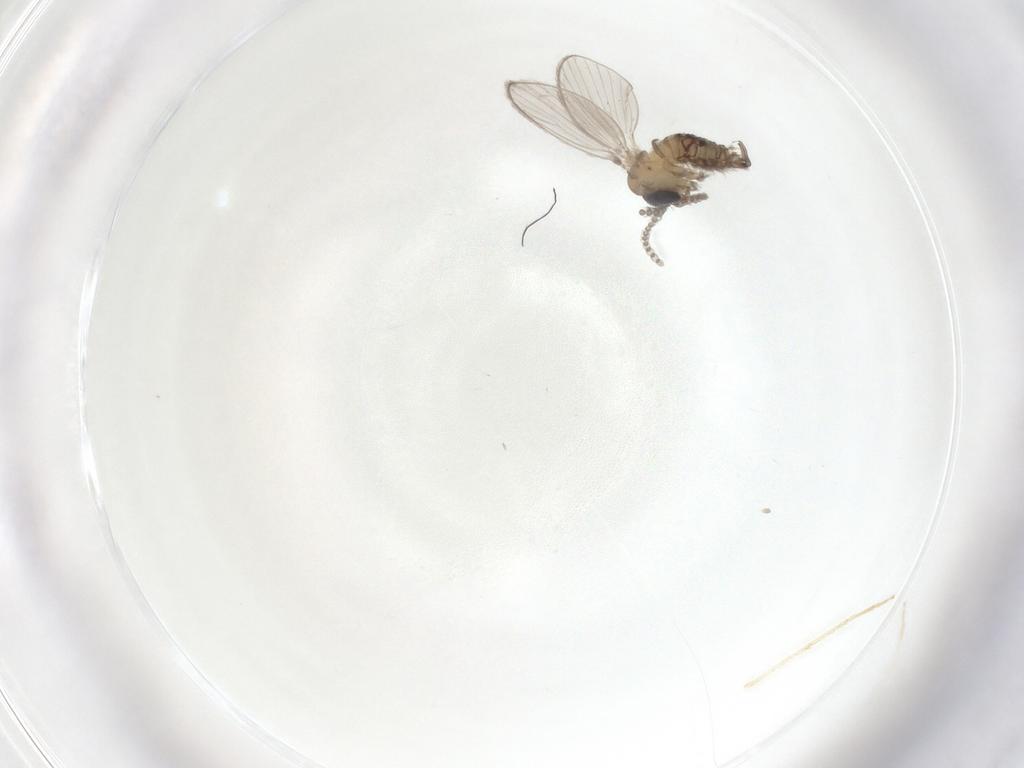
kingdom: Animalia
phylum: Arthropoda
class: Insecta
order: Diptera
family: Psychodidae
